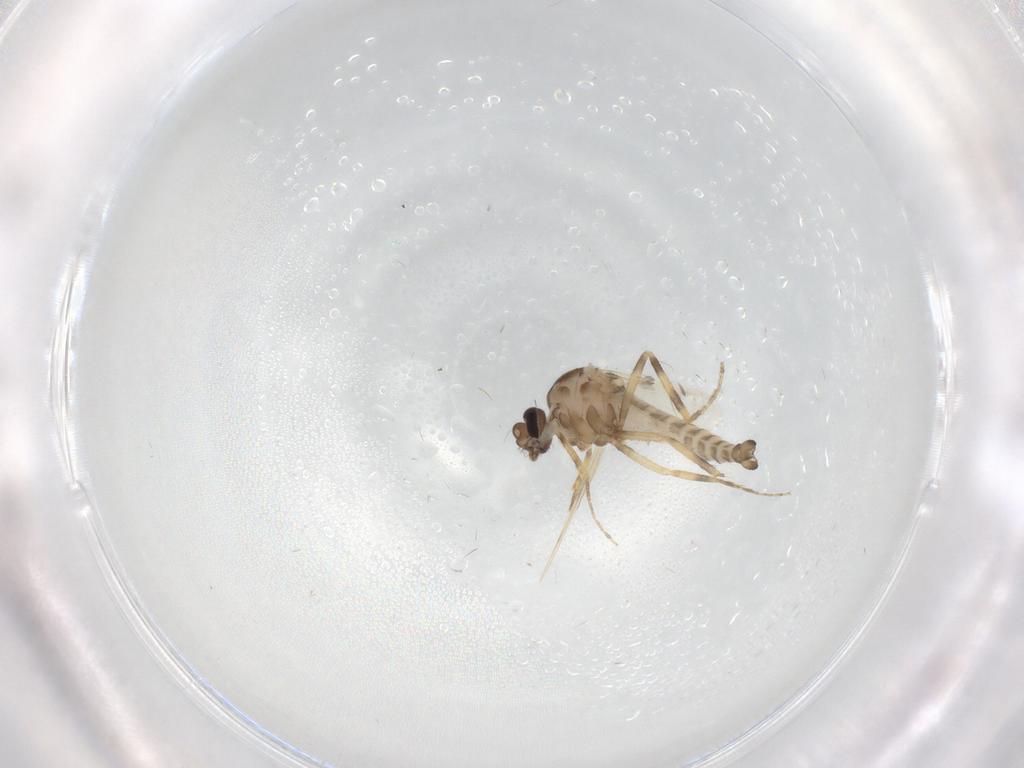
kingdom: Animalia
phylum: Arthropoda
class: Insecta
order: Diptera
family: Ceratopogonidae
